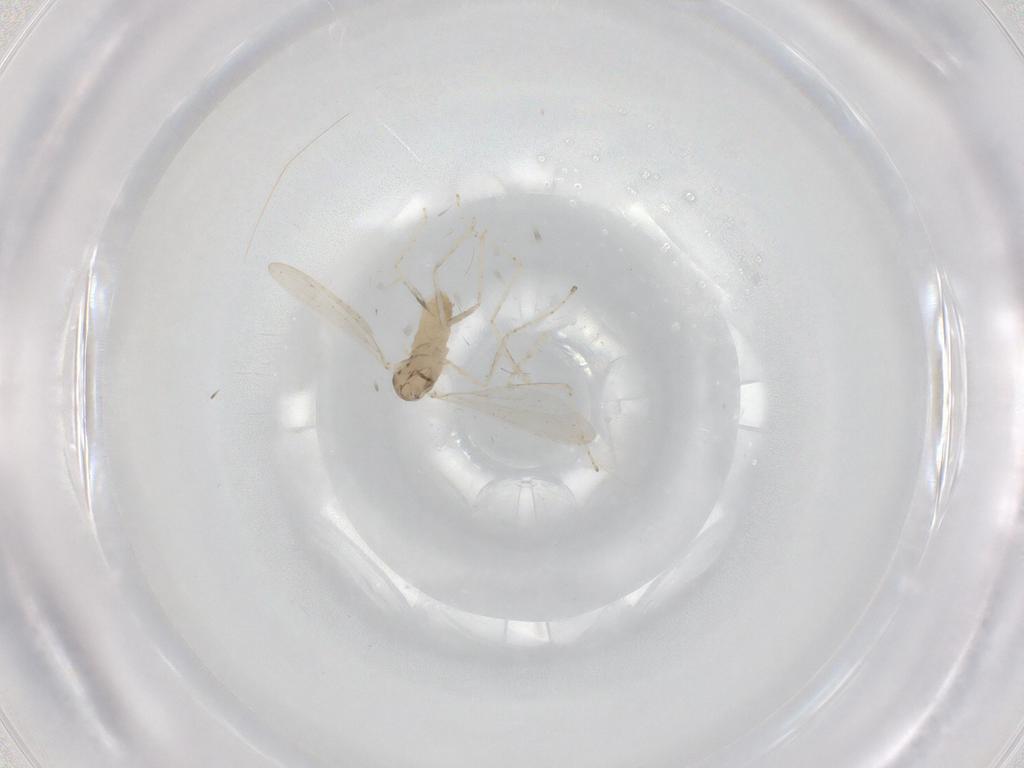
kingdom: Animalia
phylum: Arthropoda
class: Insecta
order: Diptera
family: Cecidomyiidae
